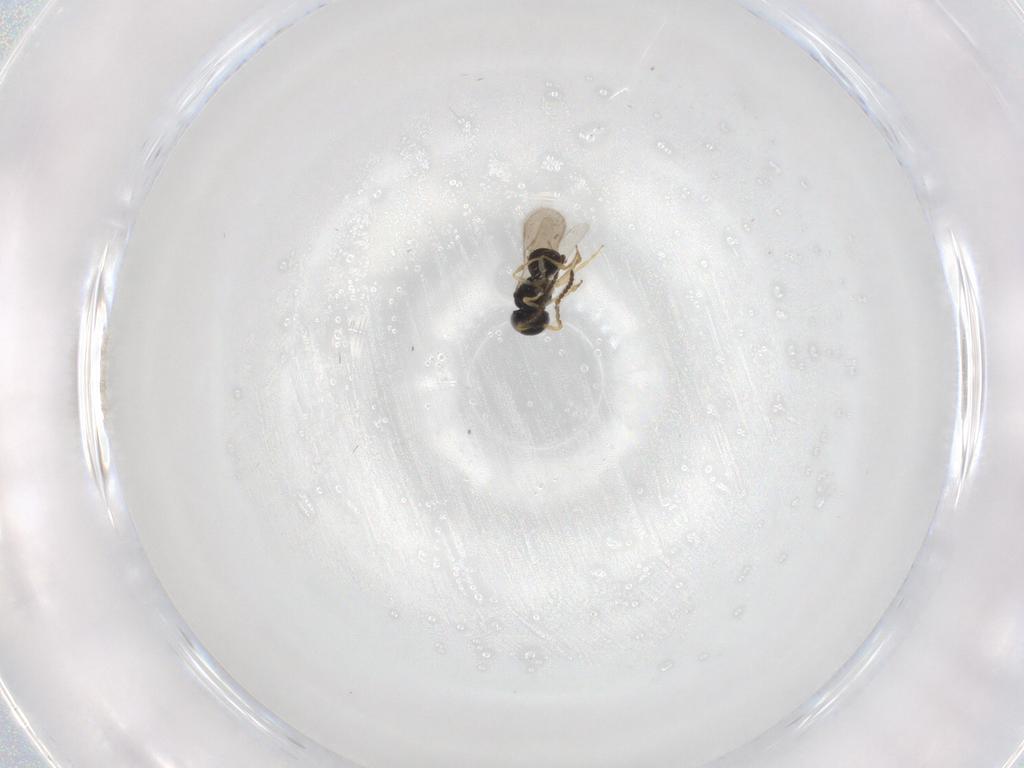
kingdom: Animalia
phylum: Arthropoda
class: Insecta
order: Hymenoptera
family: Scelionidae
